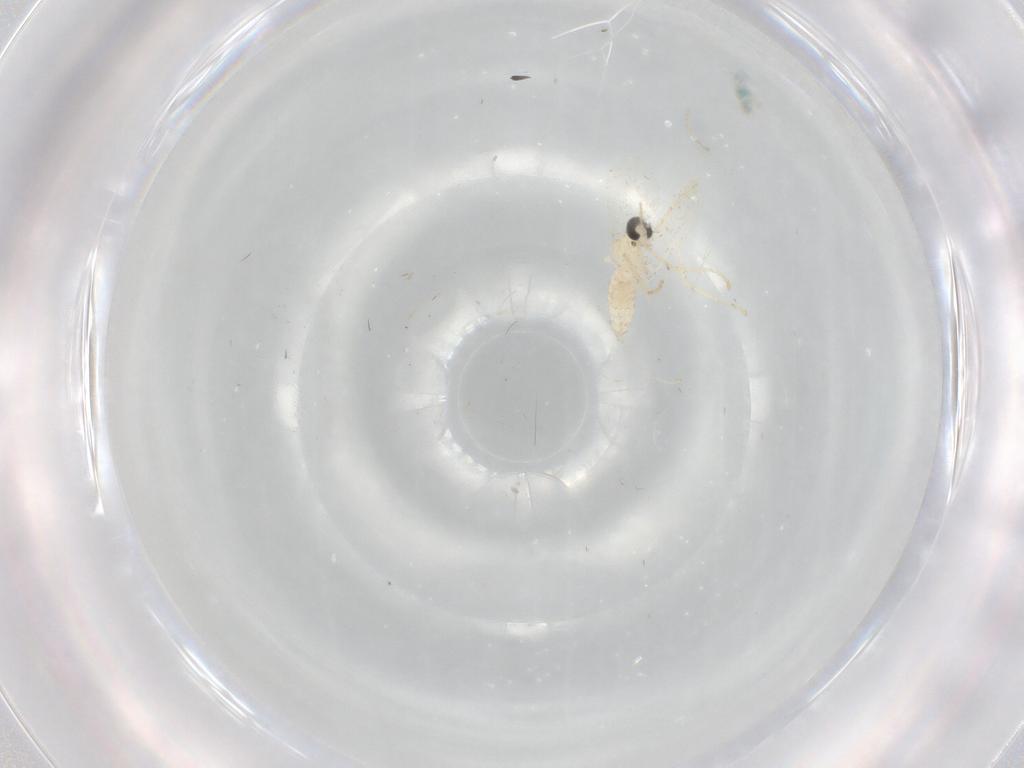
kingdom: Animalia
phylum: Arthropoda
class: Insecta
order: Diptera
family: Cecidomyiidae
